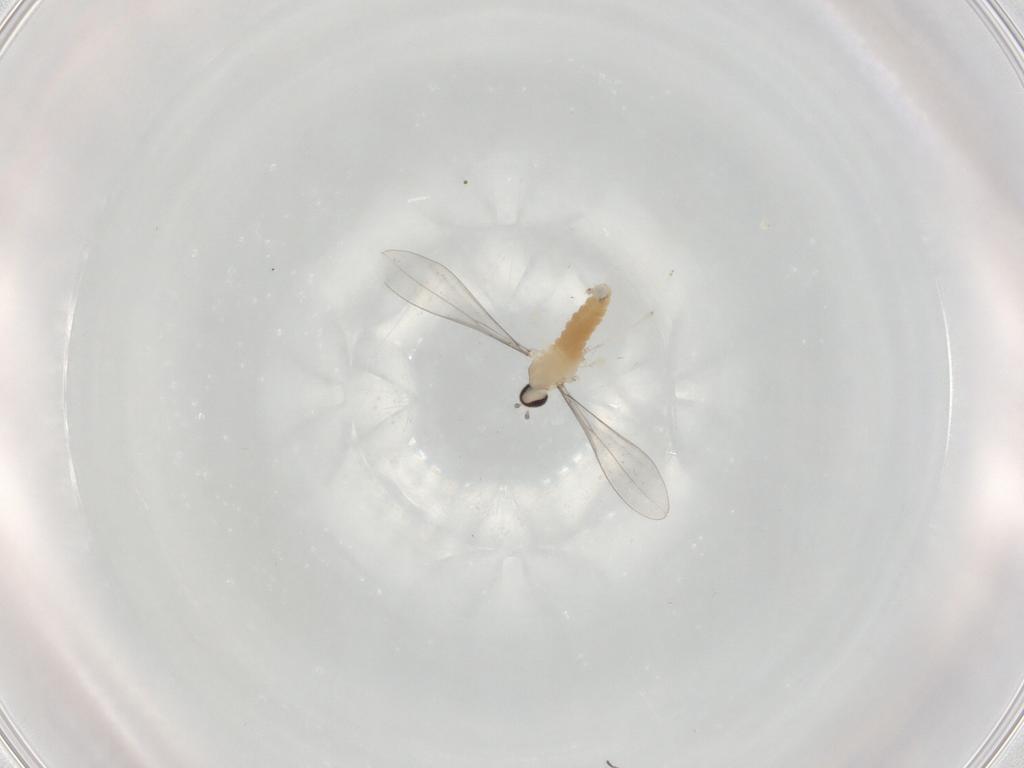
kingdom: Animalia
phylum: Arthropoda
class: Insecta
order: Diptera
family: Cecidomyiidae
